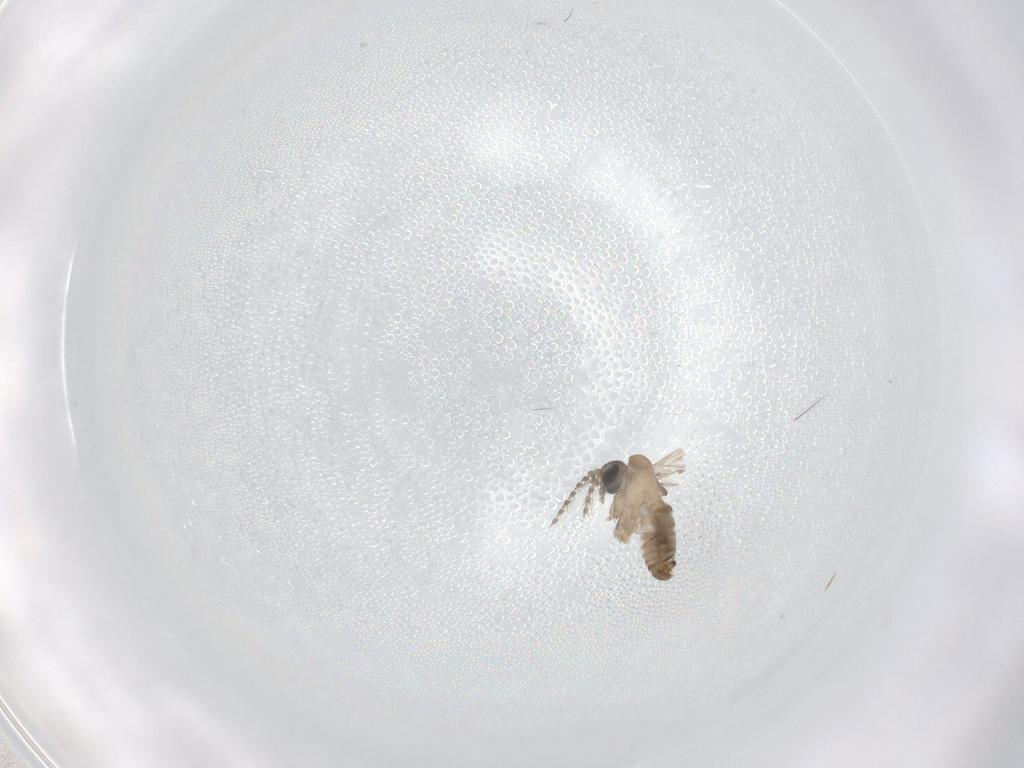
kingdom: Animalia
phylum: Arthropoda
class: Insecta
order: Diptera
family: Psychodidae
